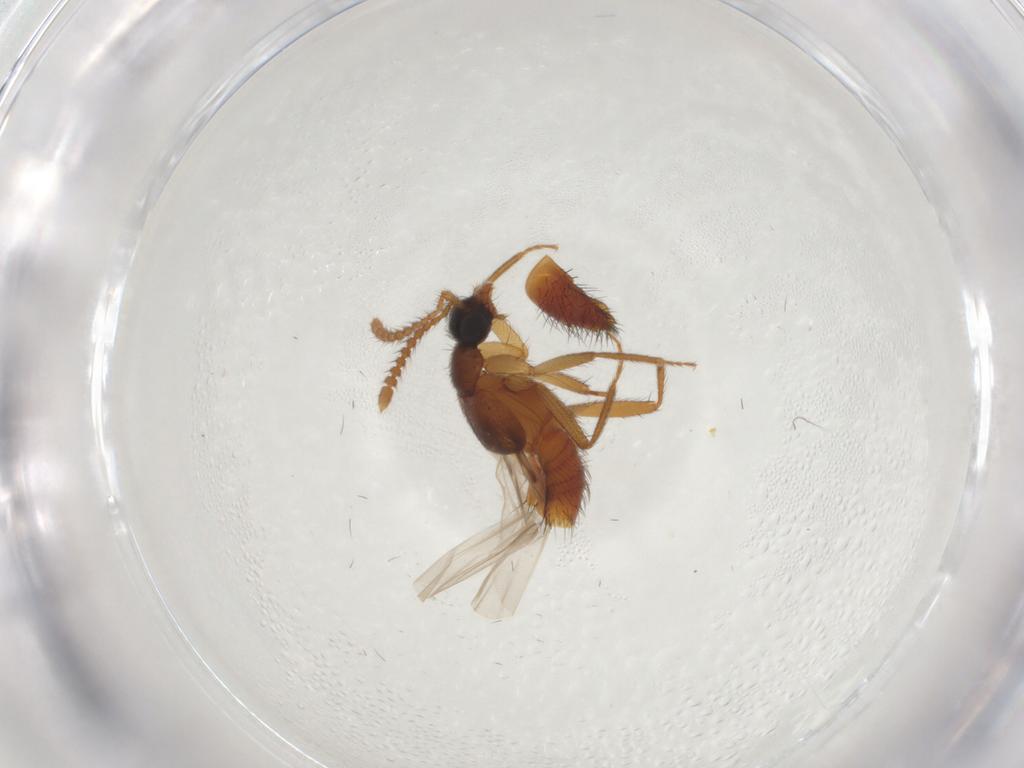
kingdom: Animalia
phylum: Arthropoda
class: Insecta
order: Coleoptera
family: Staphylinidae
